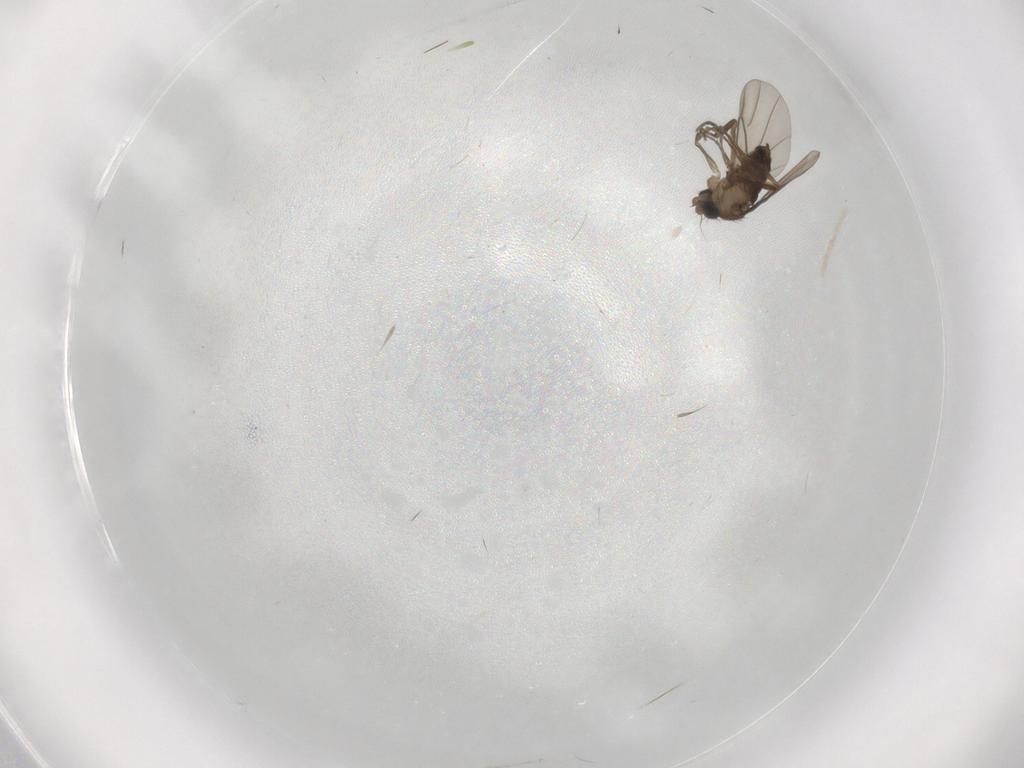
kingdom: Animalia
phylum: Arthropoda
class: Insecta
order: Diptera
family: Phoridae
